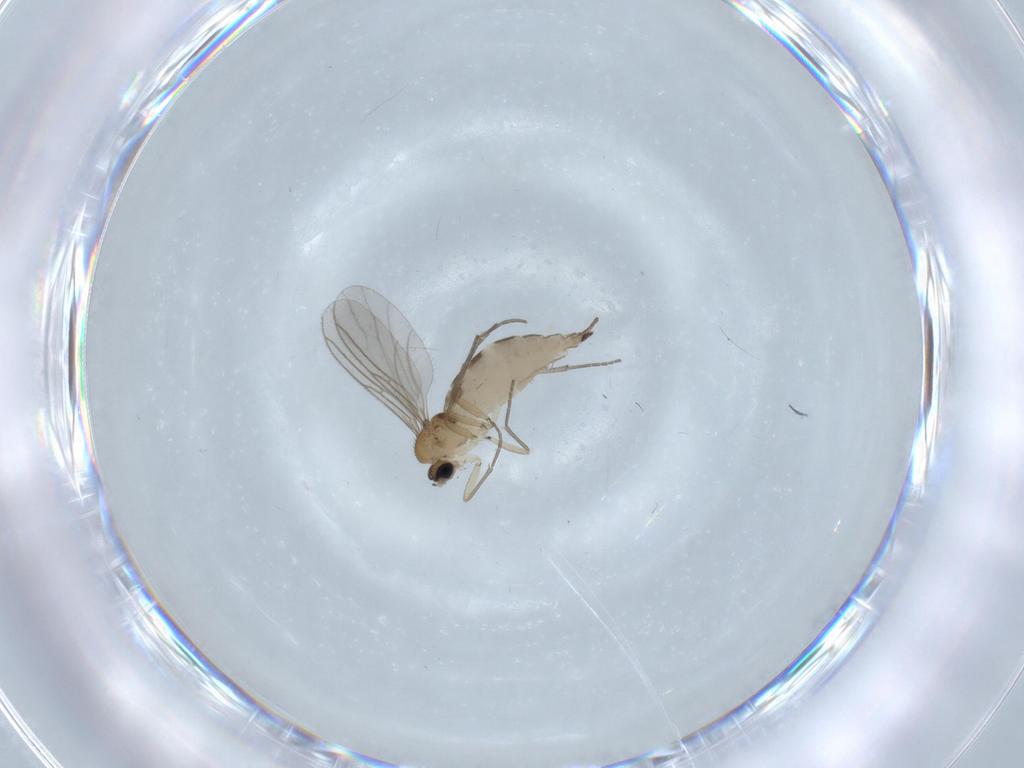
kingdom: Animalia
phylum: Arthropoda
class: Insecta
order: Diptera
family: Sciaridae
